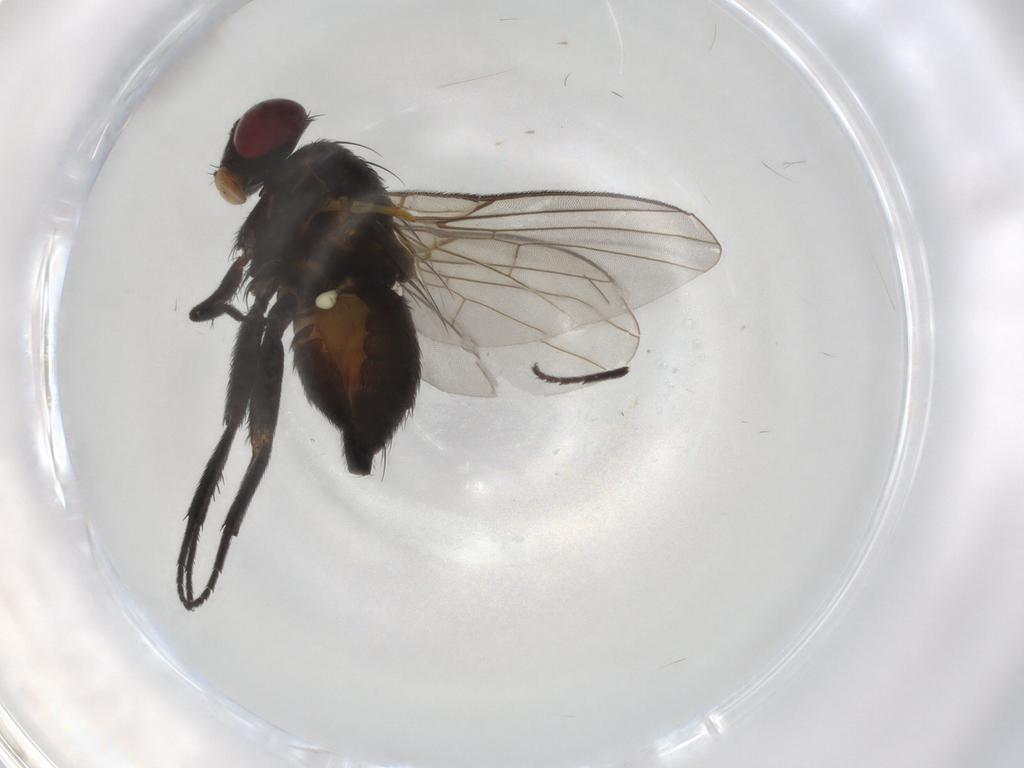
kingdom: Animalia
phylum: Arthropoda
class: Insecta
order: Diptera
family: Agromyzidae
